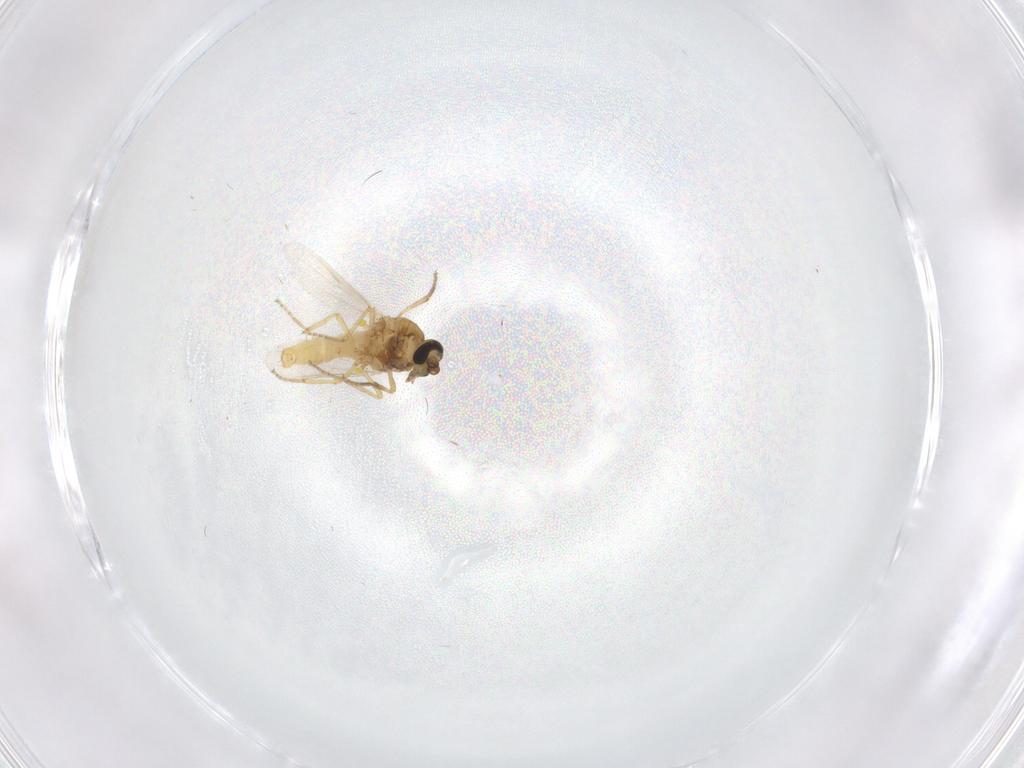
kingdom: Animalia
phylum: Arthropoda
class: Insecta
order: Diptera
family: Ceratopogonidae
